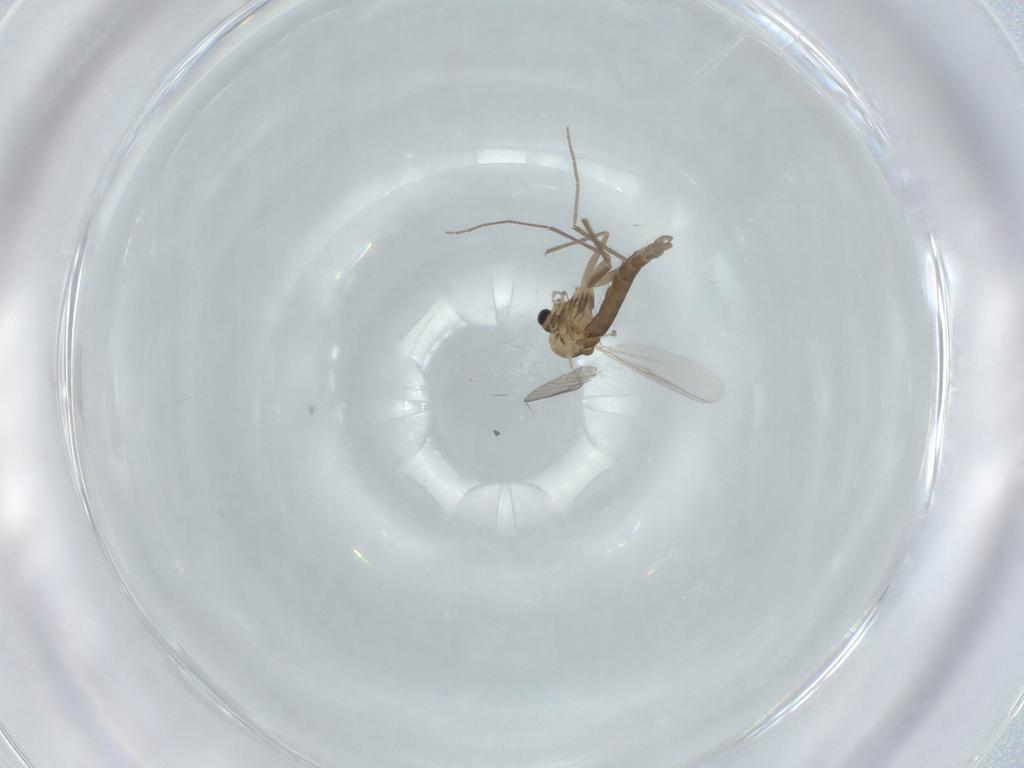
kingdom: Animalia
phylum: Arthropoda
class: Insecta
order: Diptera
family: Chironomidae
